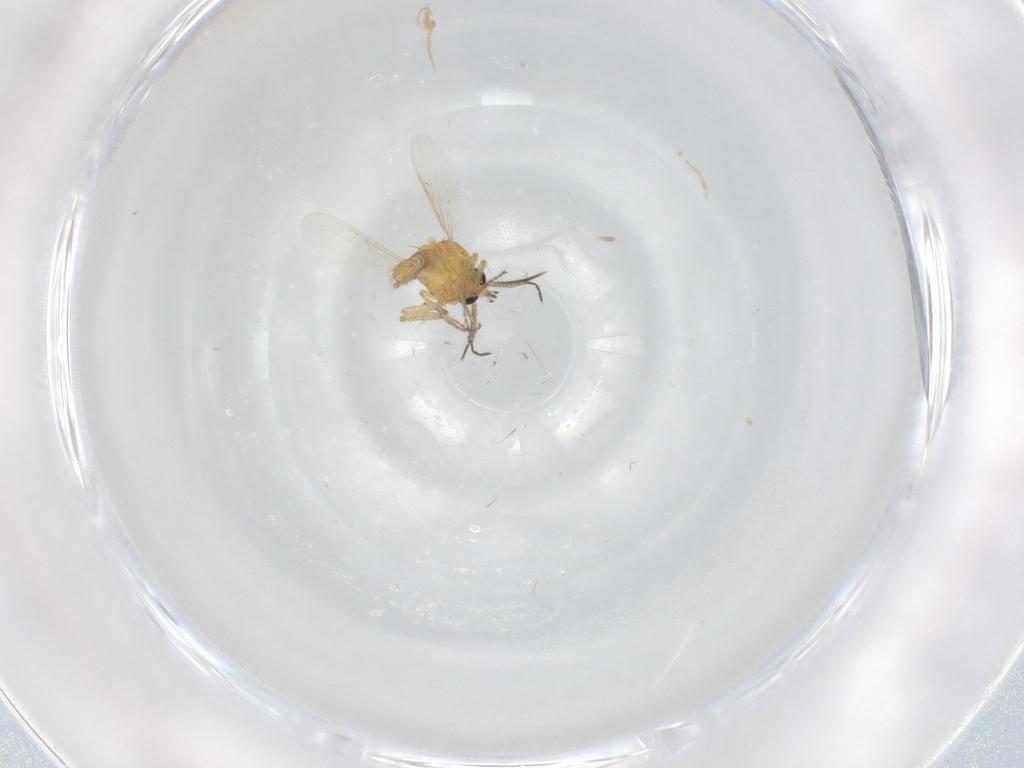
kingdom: Animalia
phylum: Arthropoda
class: Insecta
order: Diptera
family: Ceratopogonidae
